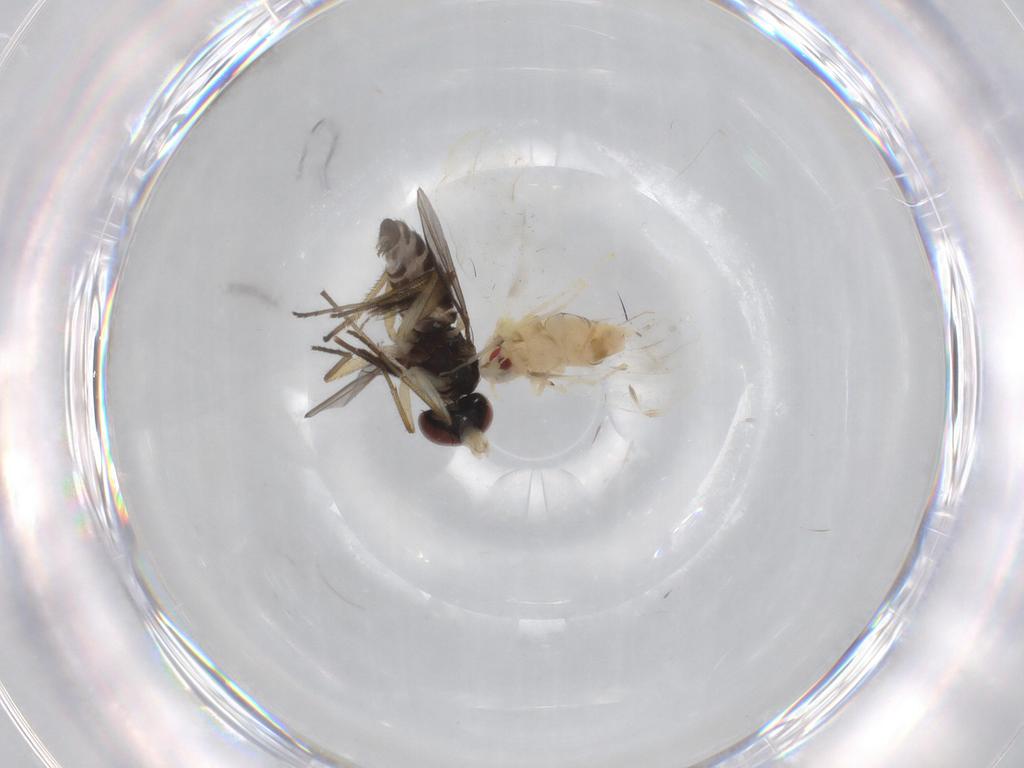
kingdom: Animalia
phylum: Arthropoda
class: Insecta
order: Diptera
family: Dolichopodidae
